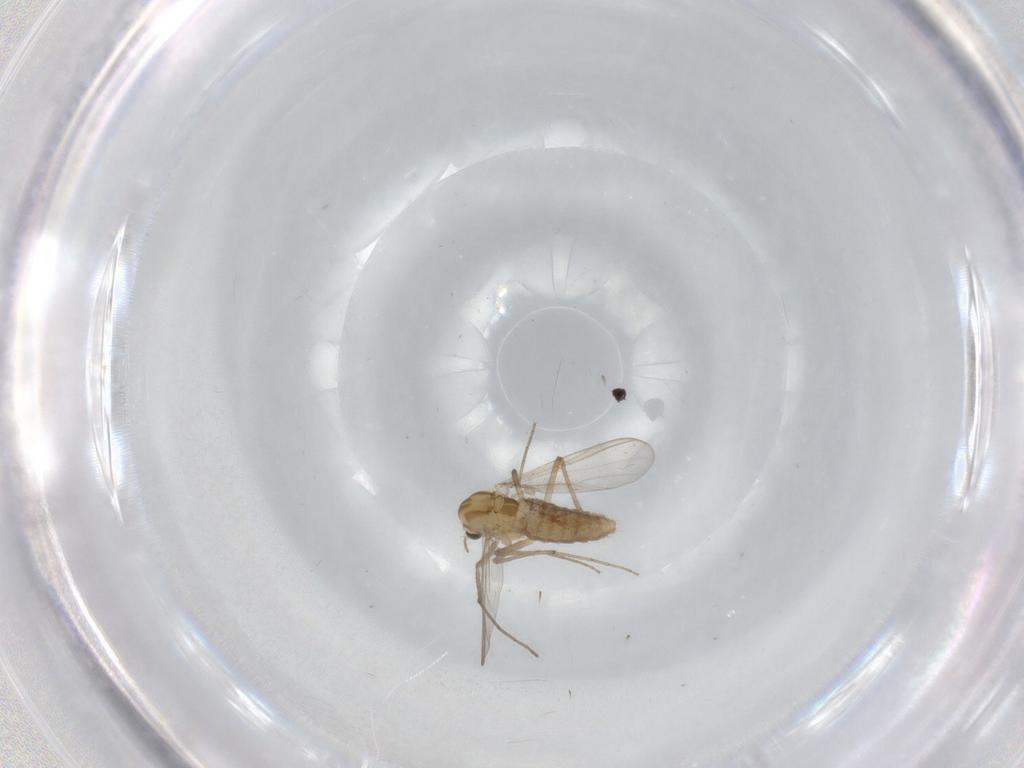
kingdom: Animalia
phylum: Arthropoda
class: Insecta
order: Diptera
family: Chironomidae
